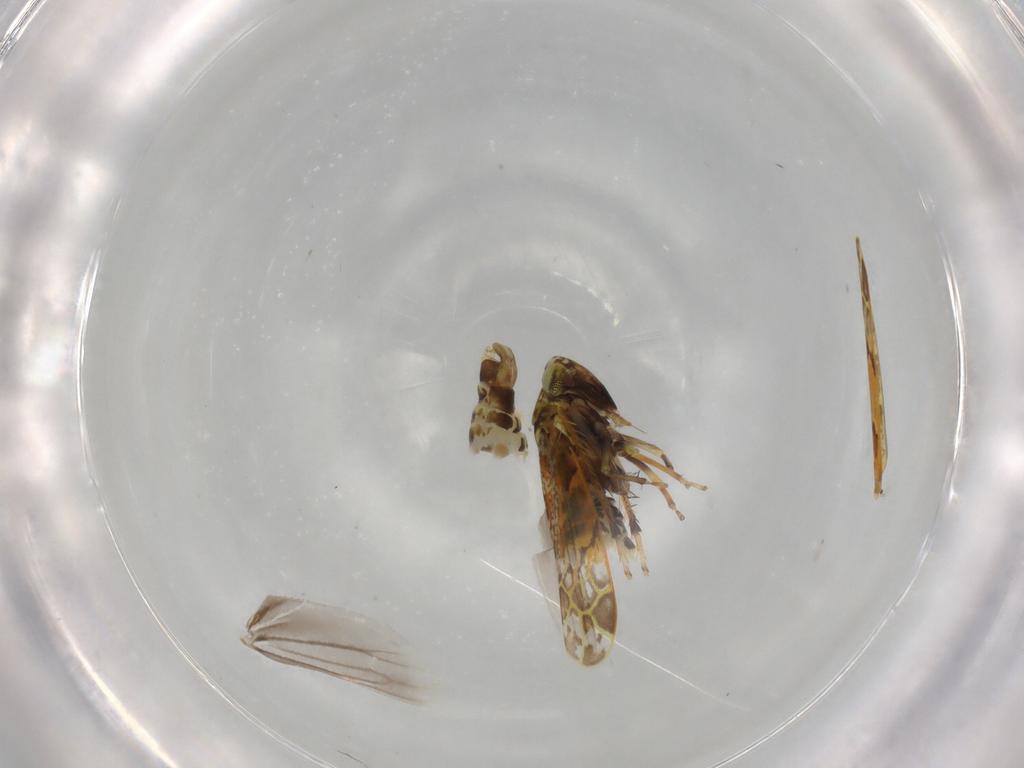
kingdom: Animalia
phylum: Arthropoda
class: Insecta
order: Hemiptera
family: Cicadellidae
